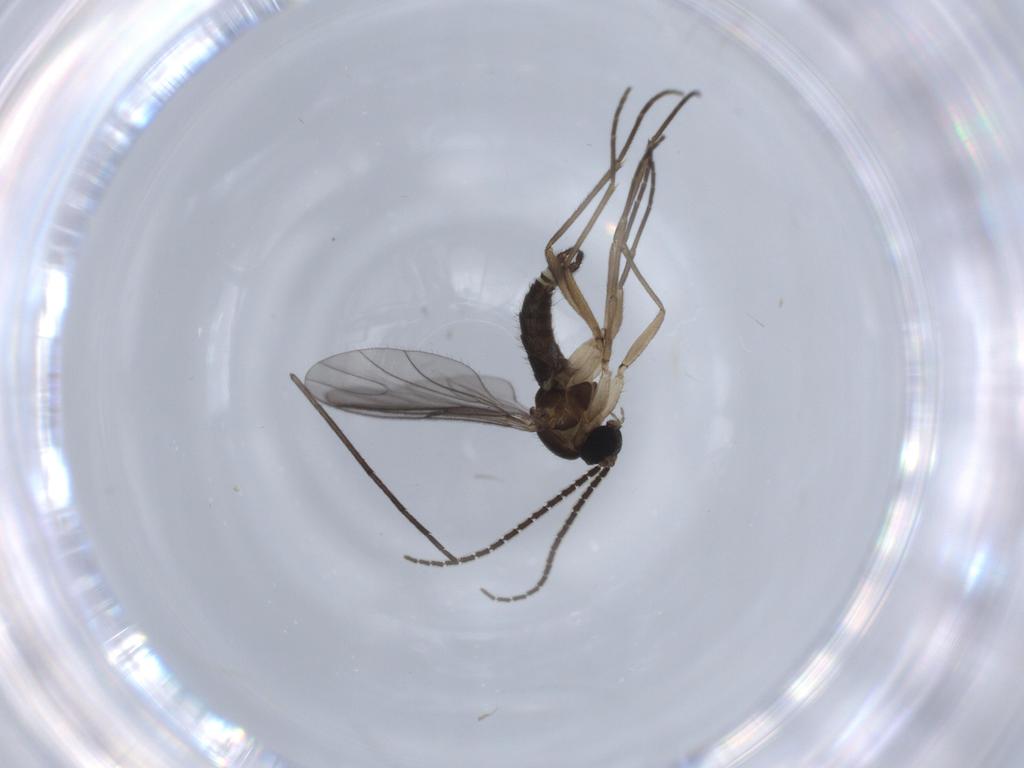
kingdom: Animalia
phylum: Arthropoda
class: Insecta
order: Diptera
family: Sciaridae
